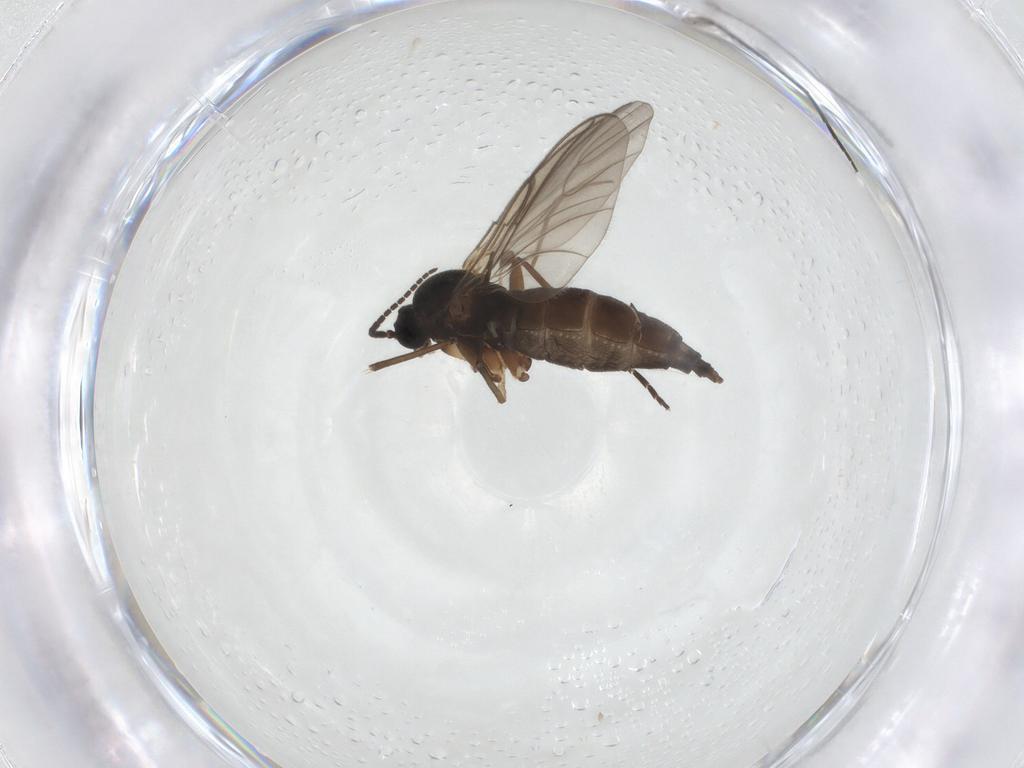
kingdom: Animalia
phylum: Arthropoda
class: Insecta
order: Diptera
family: Sciaridae
